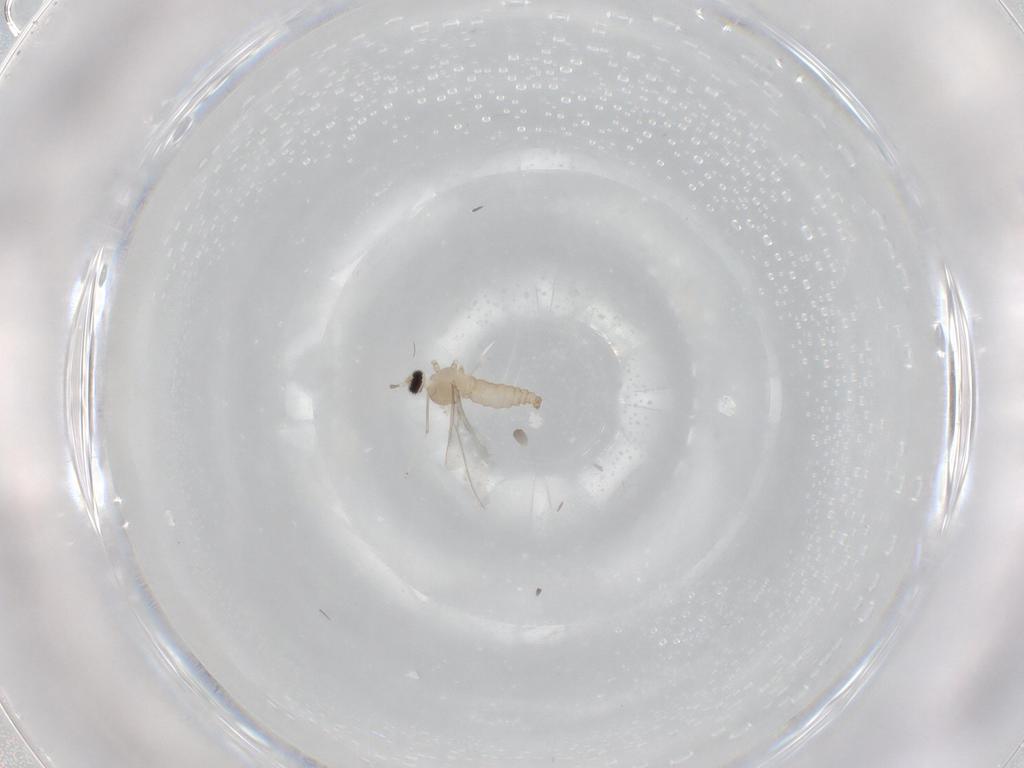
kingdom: Animalia
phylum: Arthropoda
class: Insecta
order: Diptera
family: Cecidomyiidae
